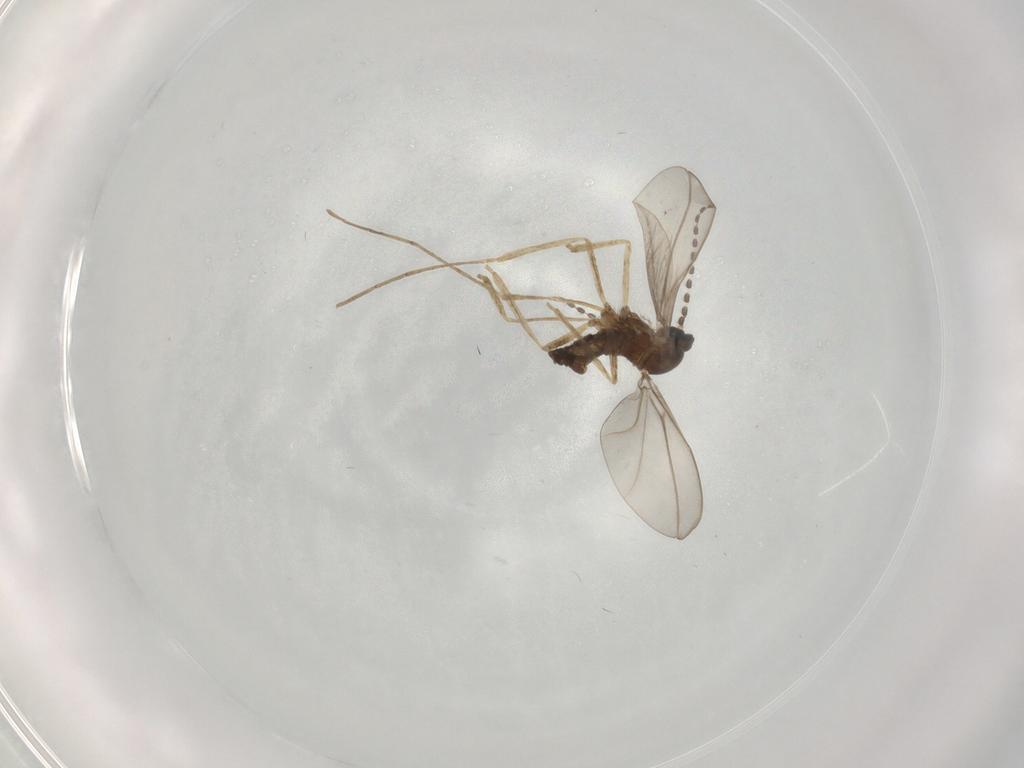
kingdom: Animalia
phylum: Arthropoda
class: Insecta
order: Diptera
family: Cecidomyiidae
